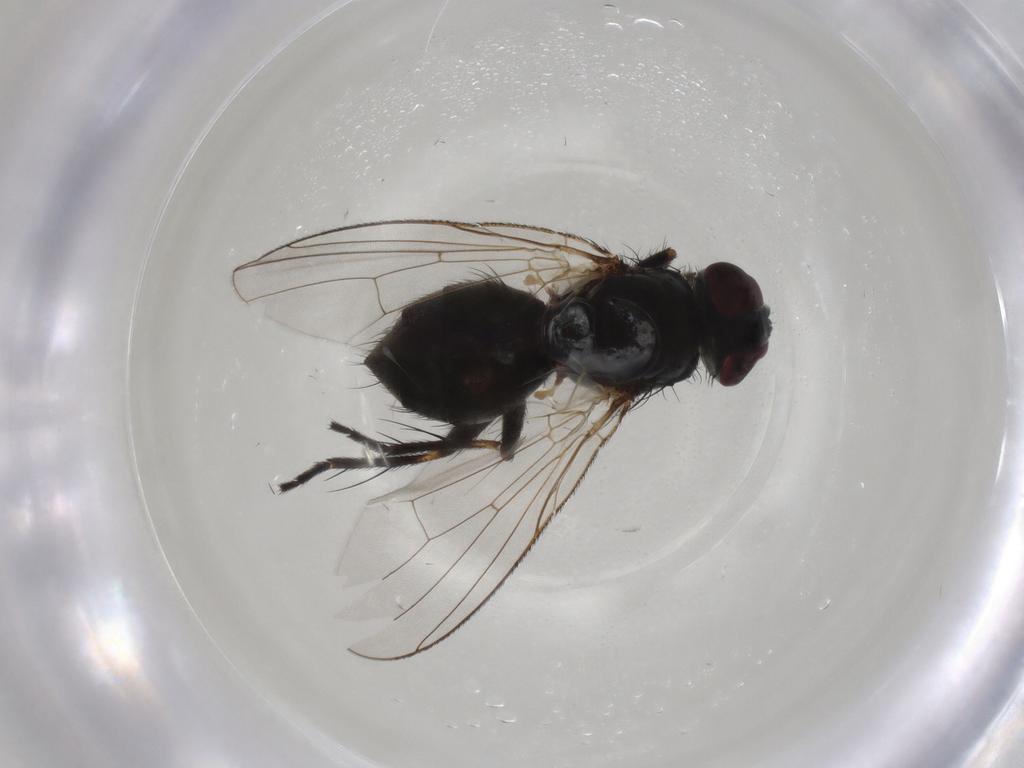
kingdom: Animalia
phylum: Arthropoda
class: Insecta
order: Diptera
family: Muscidae
